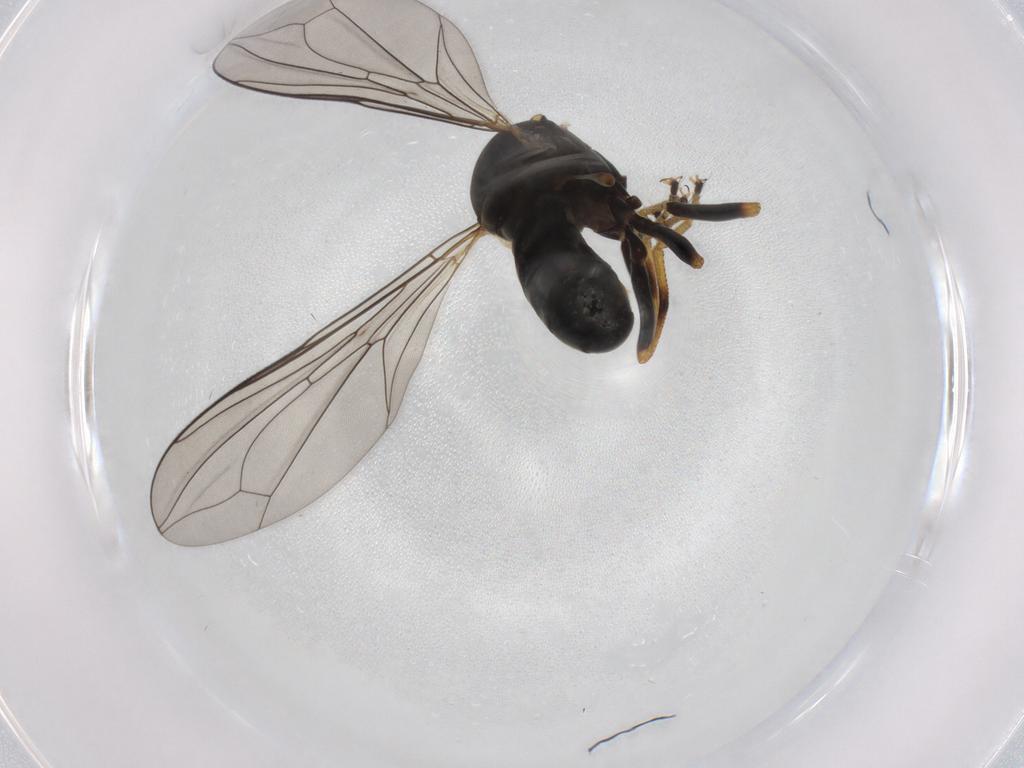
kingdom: Animalia
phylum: Arthropoda
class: Insecta
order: Diptera
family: Pipunculidae
